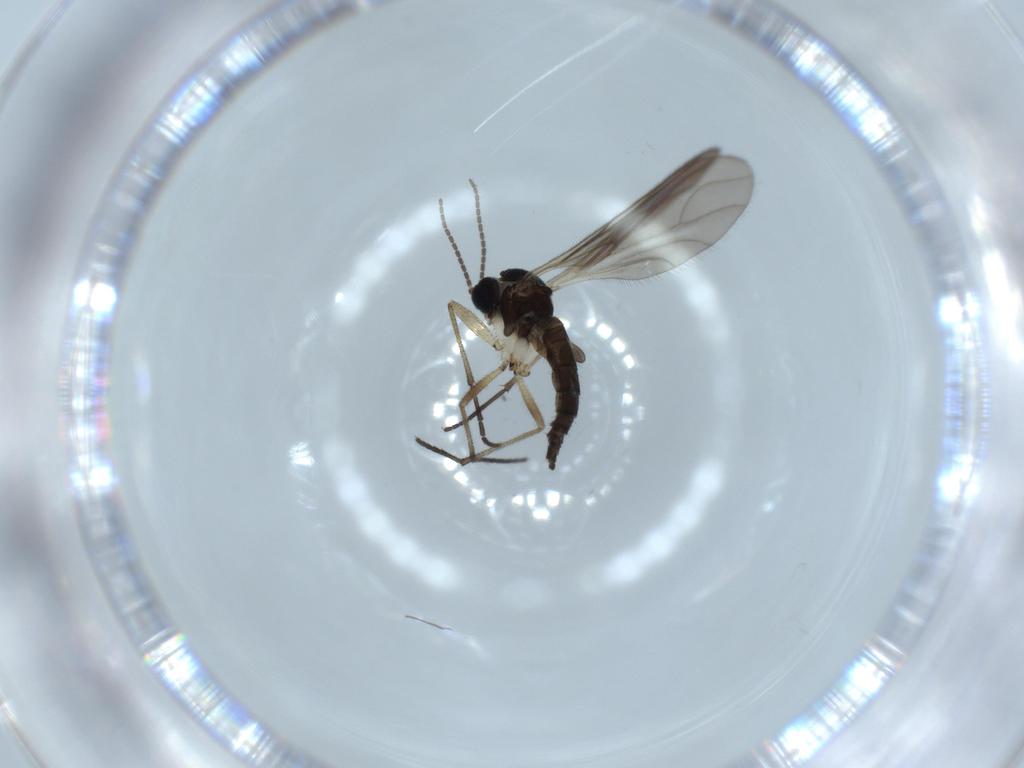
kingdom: Animalia
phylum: Arthropoda
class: Insecta
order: Diptera
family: Sciaridae
